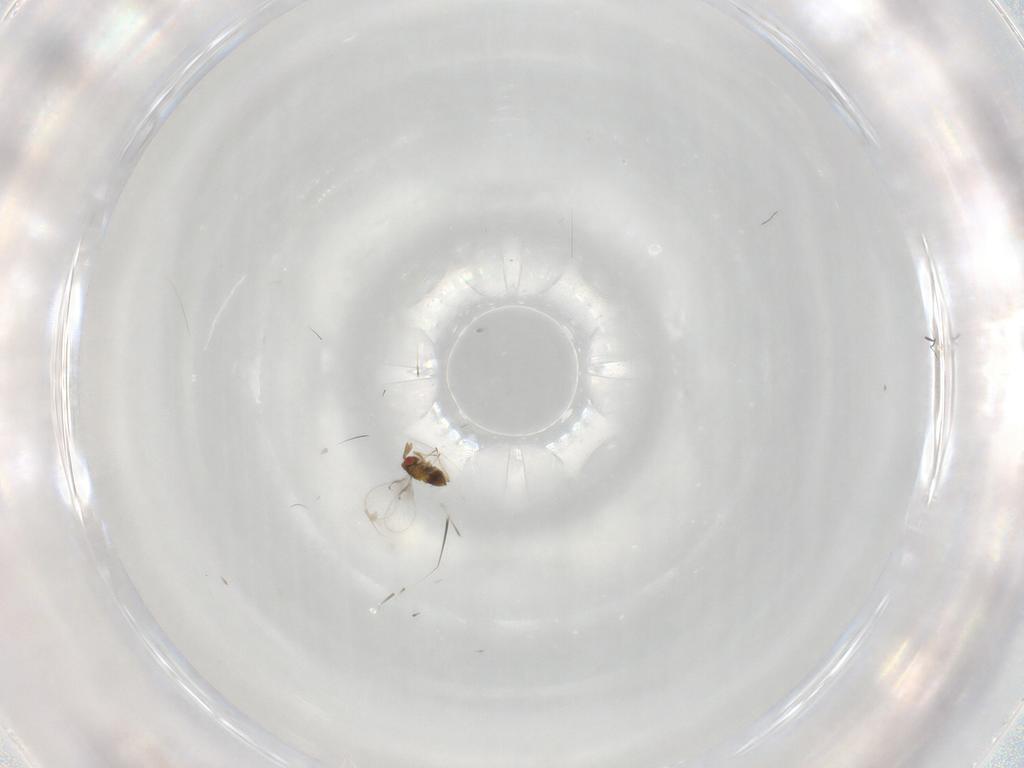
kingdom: Animalia
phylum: Arthropoda
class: Insecta
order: Hymenoptera
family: Trichogrammatidae
